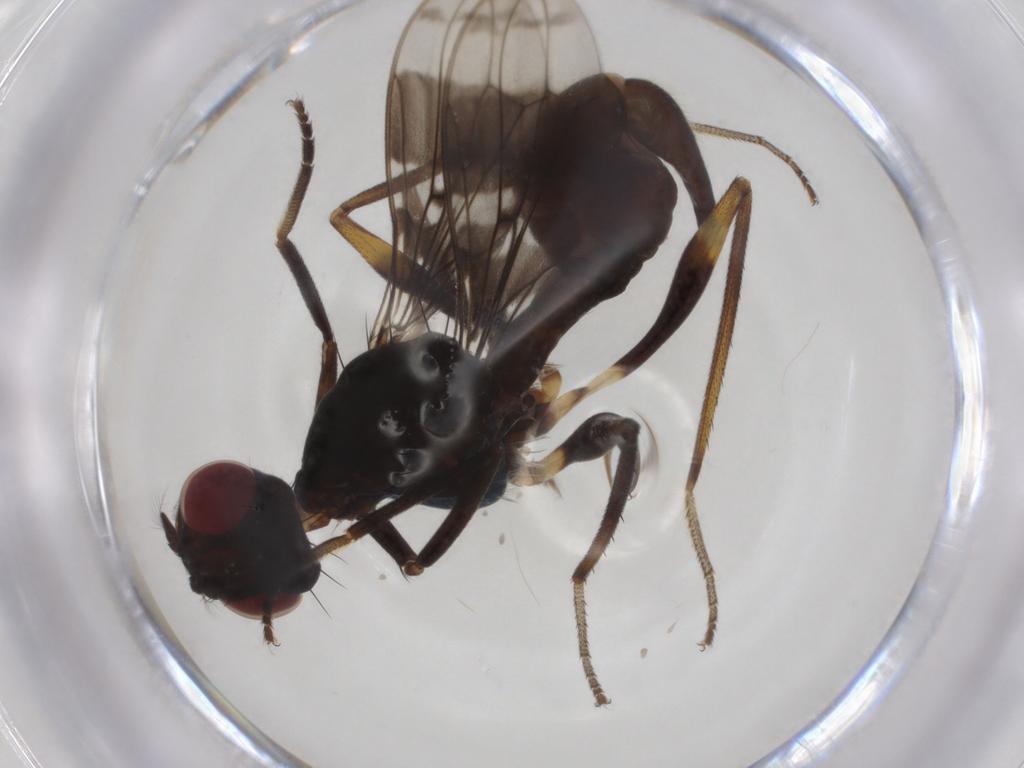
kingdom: Animalia
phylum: Arthropoda
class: Insecta
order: Diptera
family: Micropezidae
